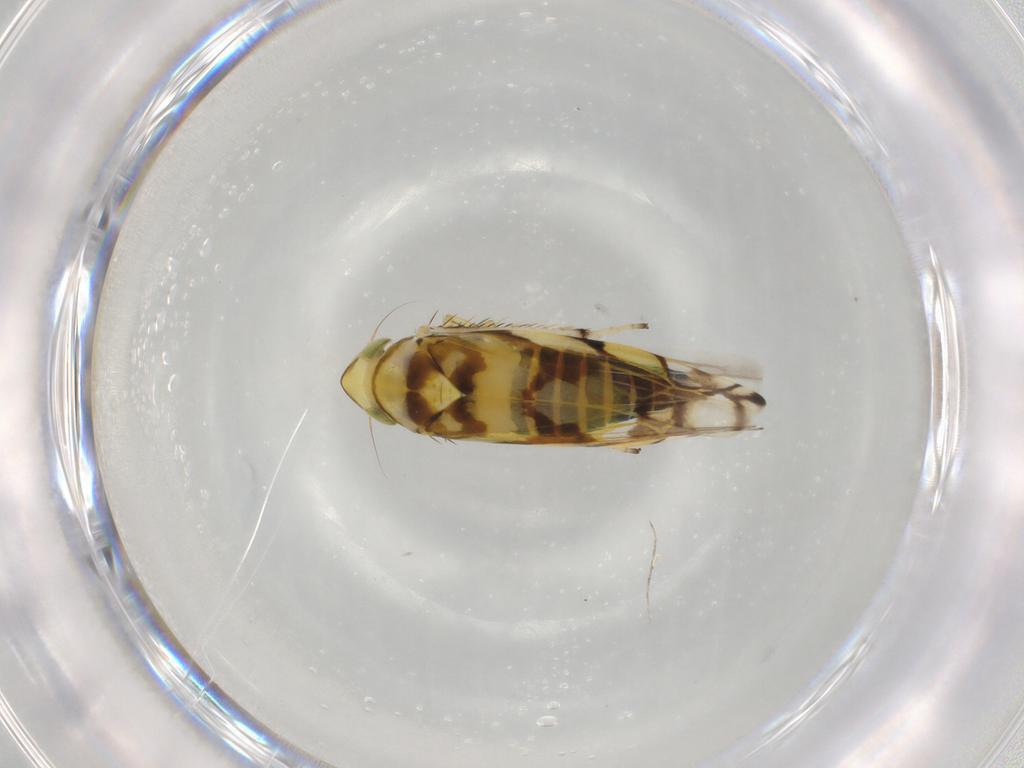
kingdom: Animalia
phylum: Arthropoda
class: Insecta
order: Hemiptera
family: Cicadellidae
